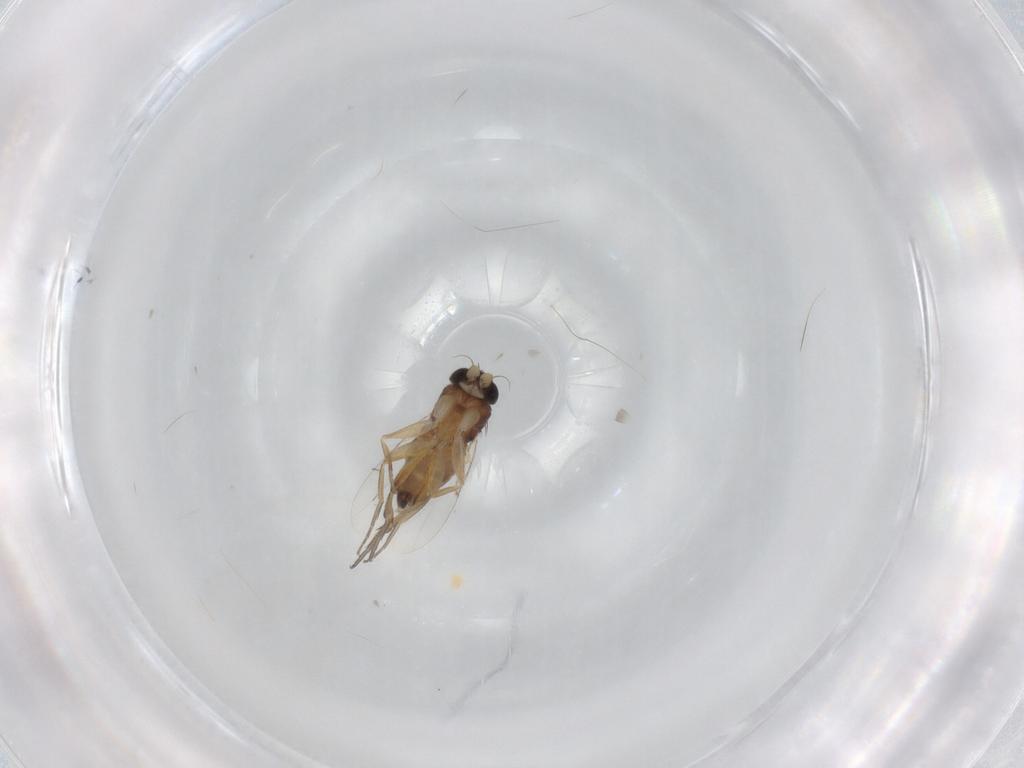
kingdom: Animalia
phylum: Arthropoda
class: Insecta
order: Diptera
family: Phoridae
